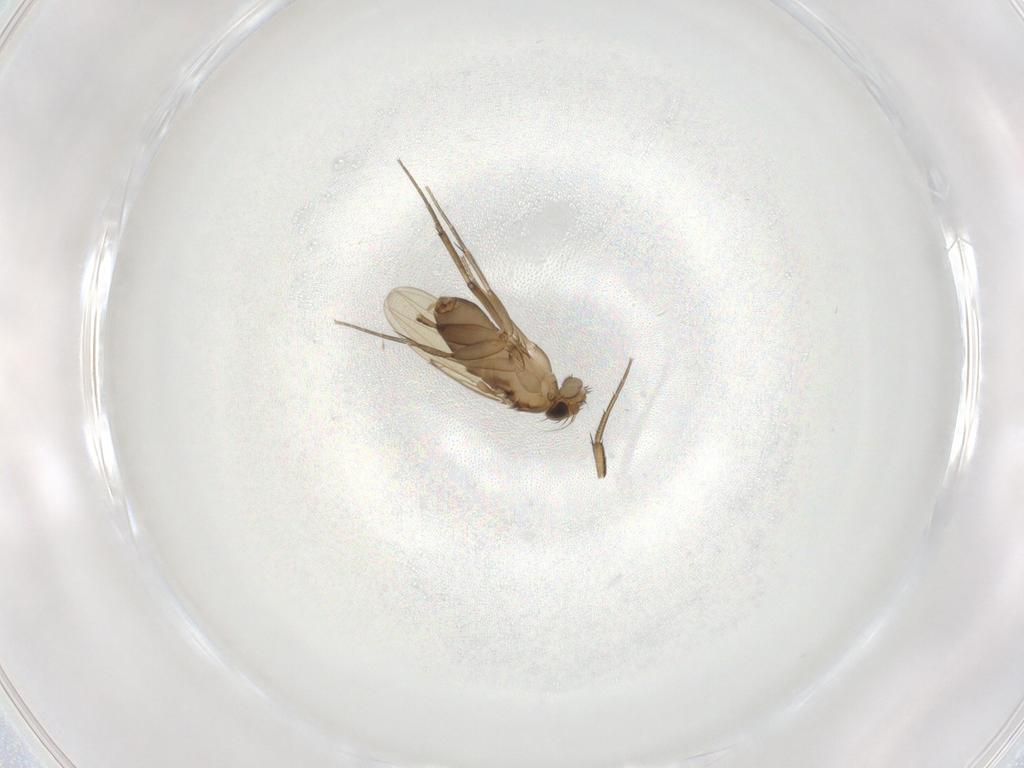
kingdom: Animalia
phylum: Arthropoda
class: Insecta
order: Diptera
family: Phoridae
